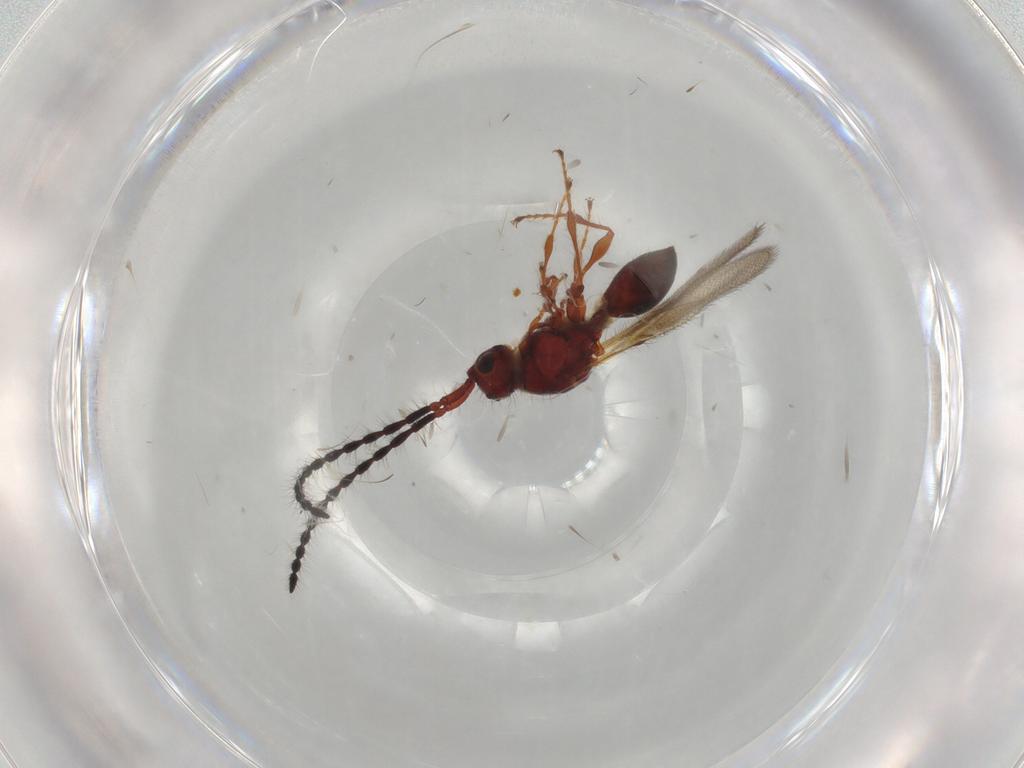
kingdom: Animalia
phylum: Arthropoda
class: Insecta
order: Hymenoptera
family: Diapriidae
